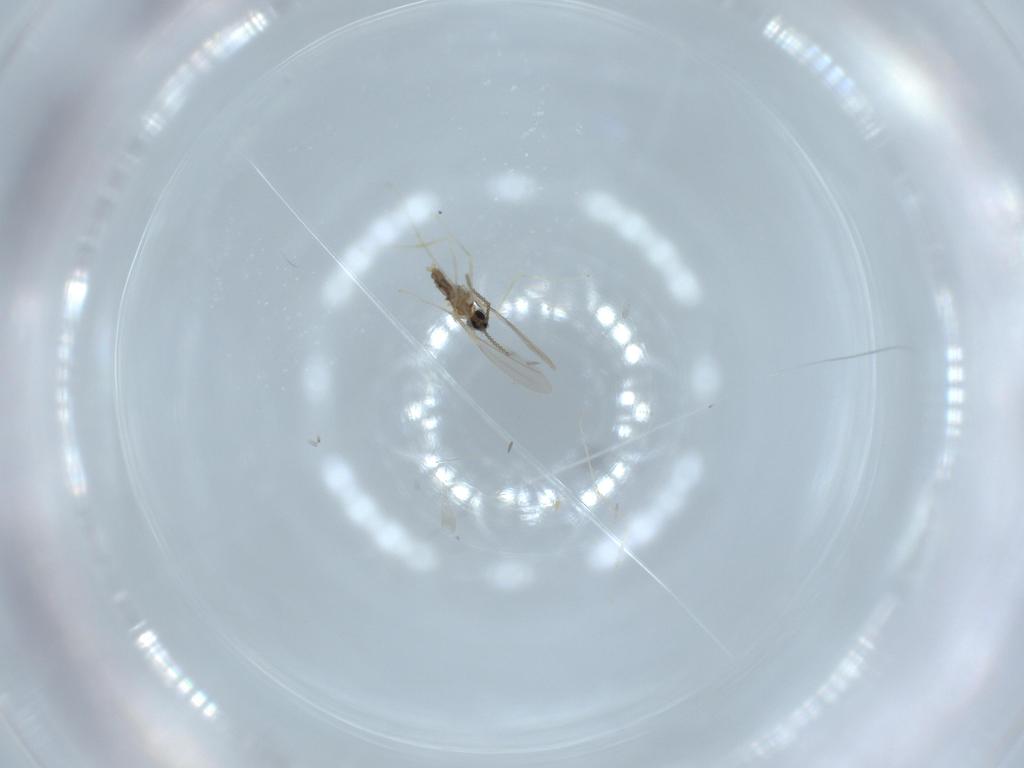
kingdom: Animalia
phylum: Arthropoda
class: Insecta
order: Diptera
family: Cecidomyiidae
